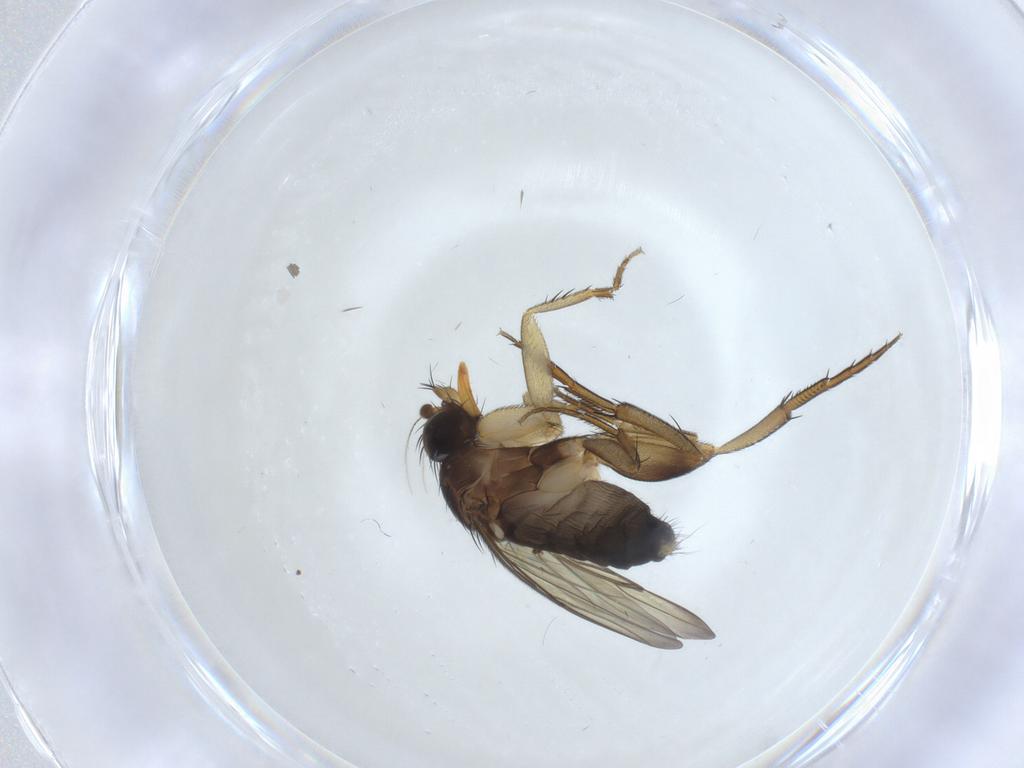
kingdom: Animalia
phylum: Arthropoda
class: Insecta
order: Diptera
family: Phoridae
